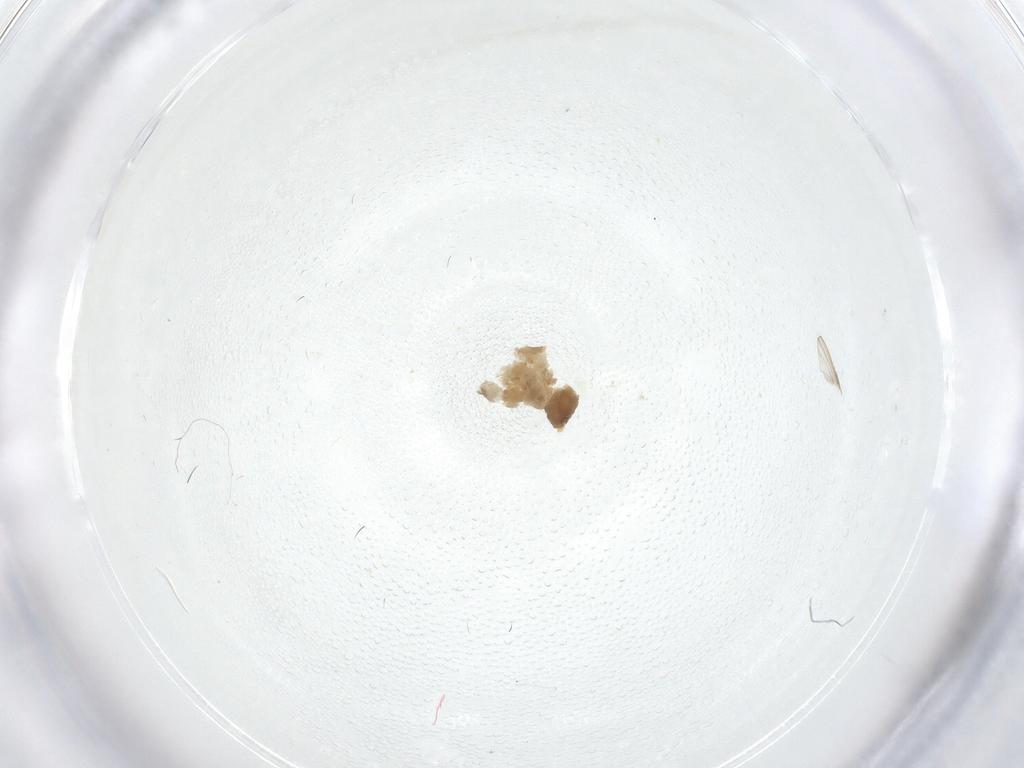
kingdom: Animalia
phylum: Arthropoda
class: Insecta
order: Diptera
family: Chironomidae
